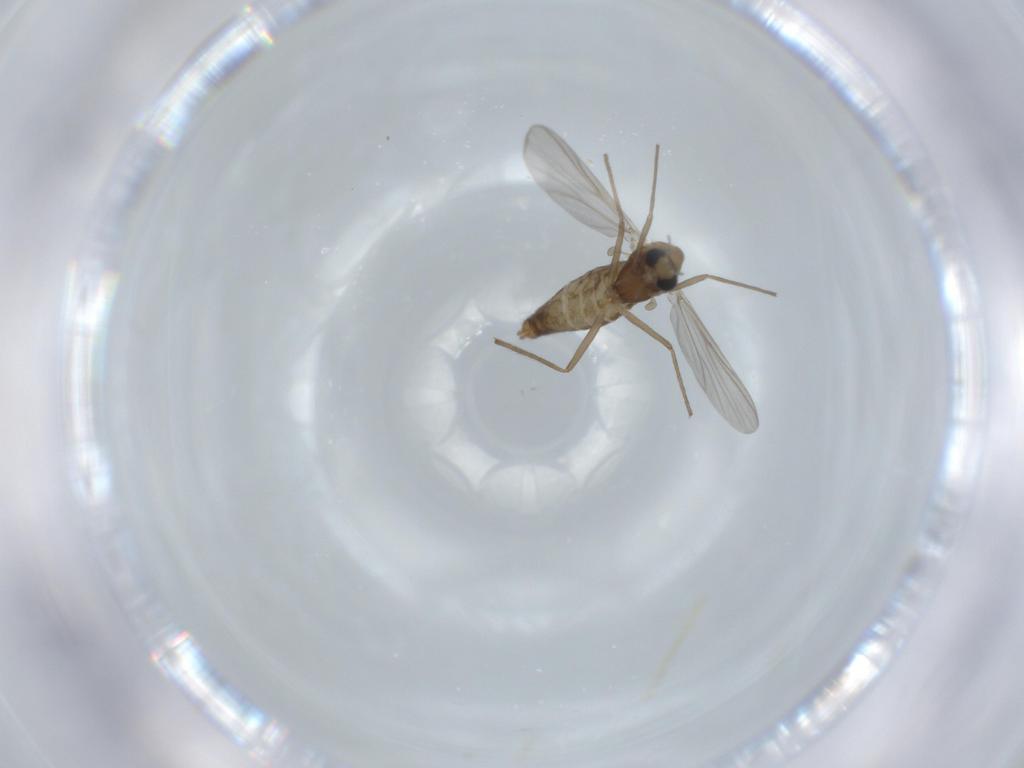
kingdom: Animalia
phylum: Arthropoda
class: Insecta
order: Diptera
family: Chironomidae
